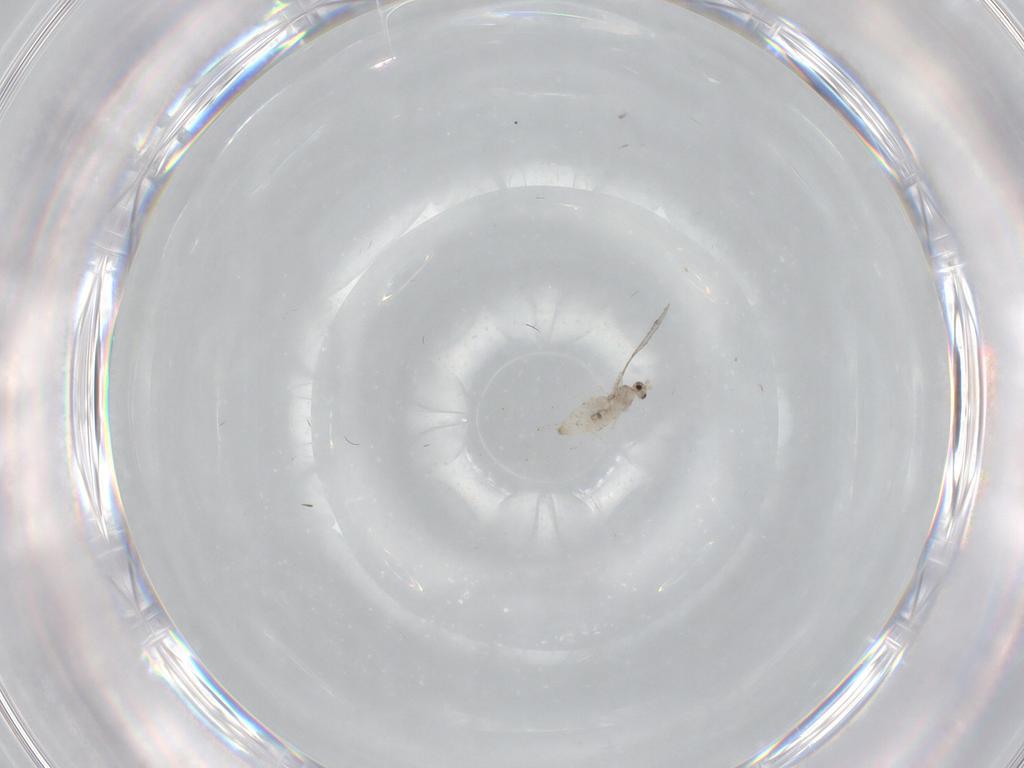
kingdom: Animalia
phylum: Arthropoda
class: Insecta
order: Diptera
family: Cecidomyiidae
